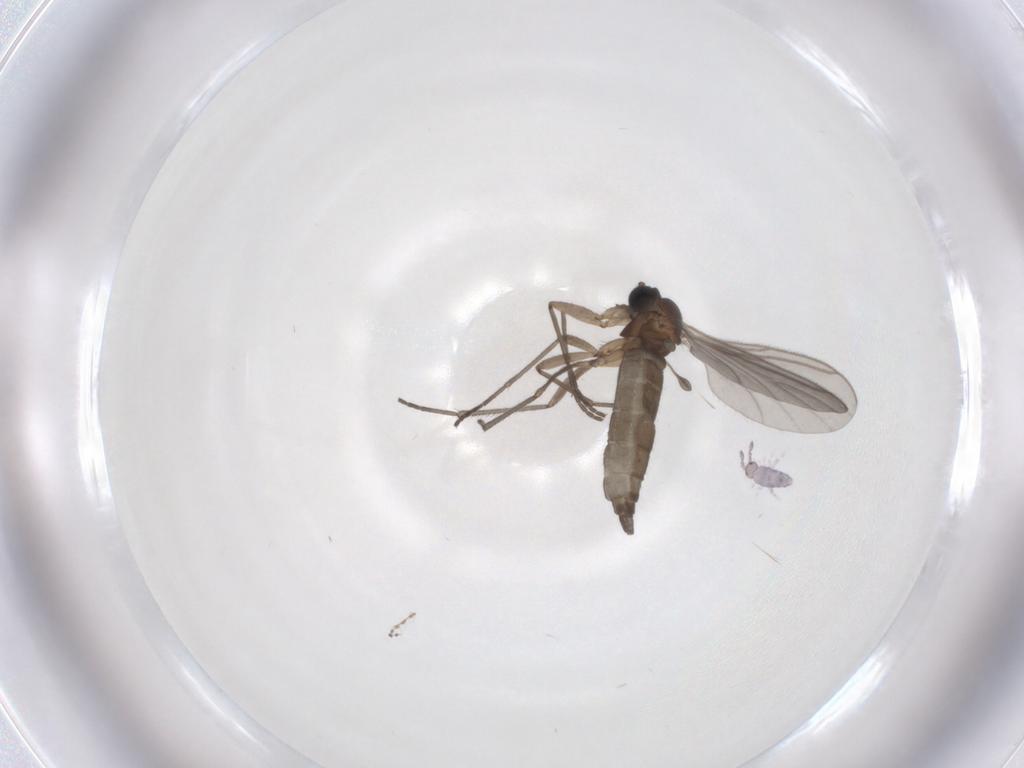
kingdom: Animalia
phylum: Arthropoda
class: Insecta
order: Diptera
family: Sciaridae
